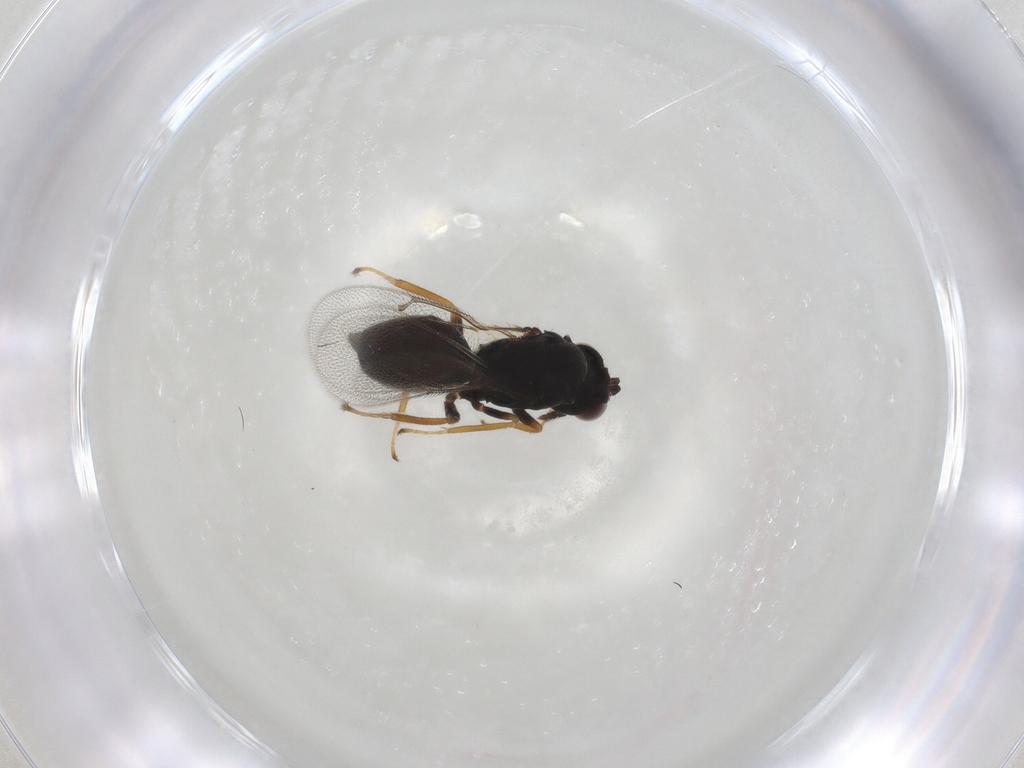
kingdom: Animalia
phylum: Arthropoda
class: Insecta
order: Hymenoptera
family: Eulophidae
